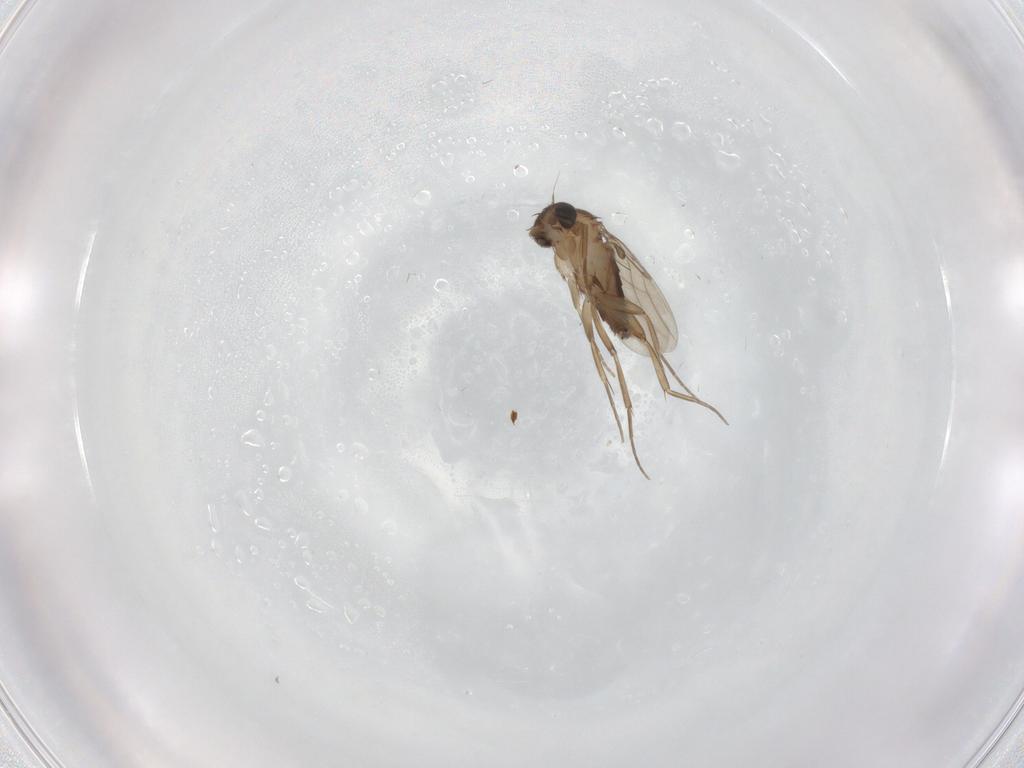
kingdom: Animalia
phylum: Arthropoda
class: Insecta
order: Diptera
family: Phoridae
